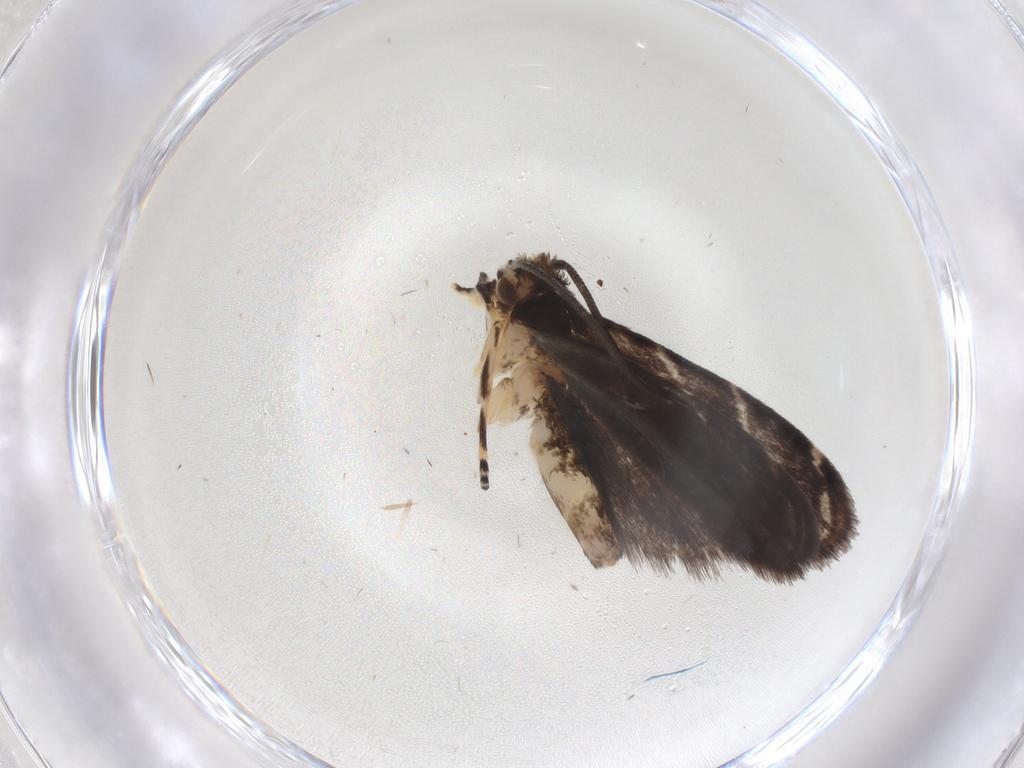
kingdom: Animalia
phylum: Arthropoda
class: Insecta
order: Lepidoptera
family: Dryadaulidae
